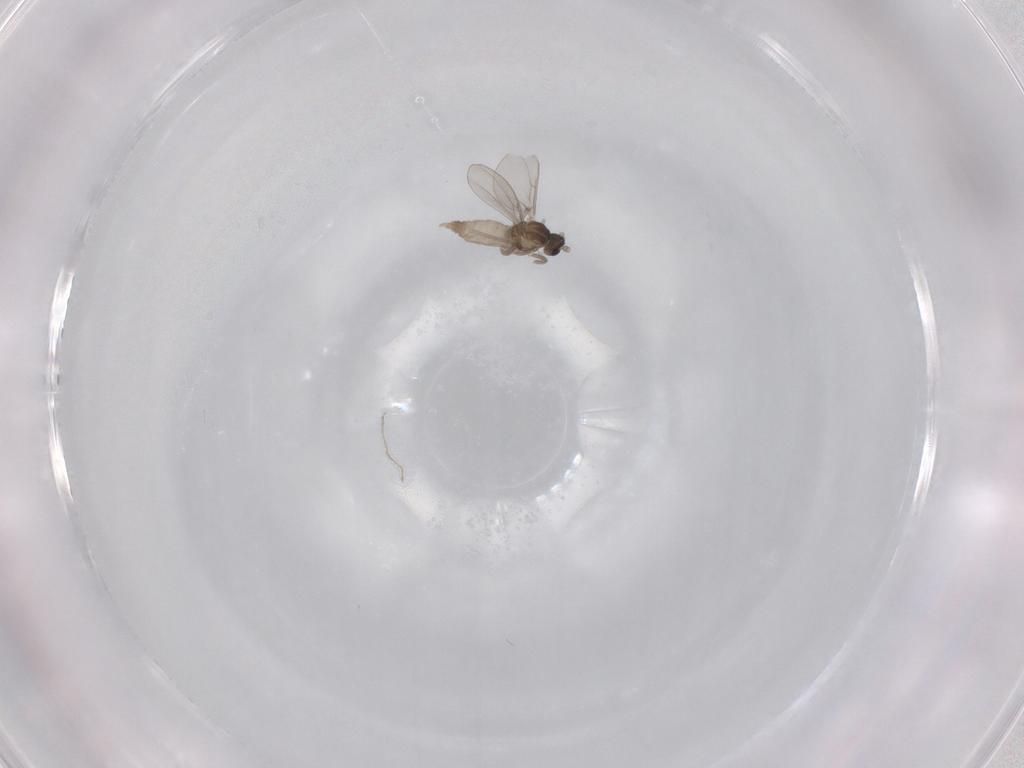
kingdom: Animalia
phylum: Arthropoda
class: Insecta
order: Diptera
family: Cecidomyiidae
